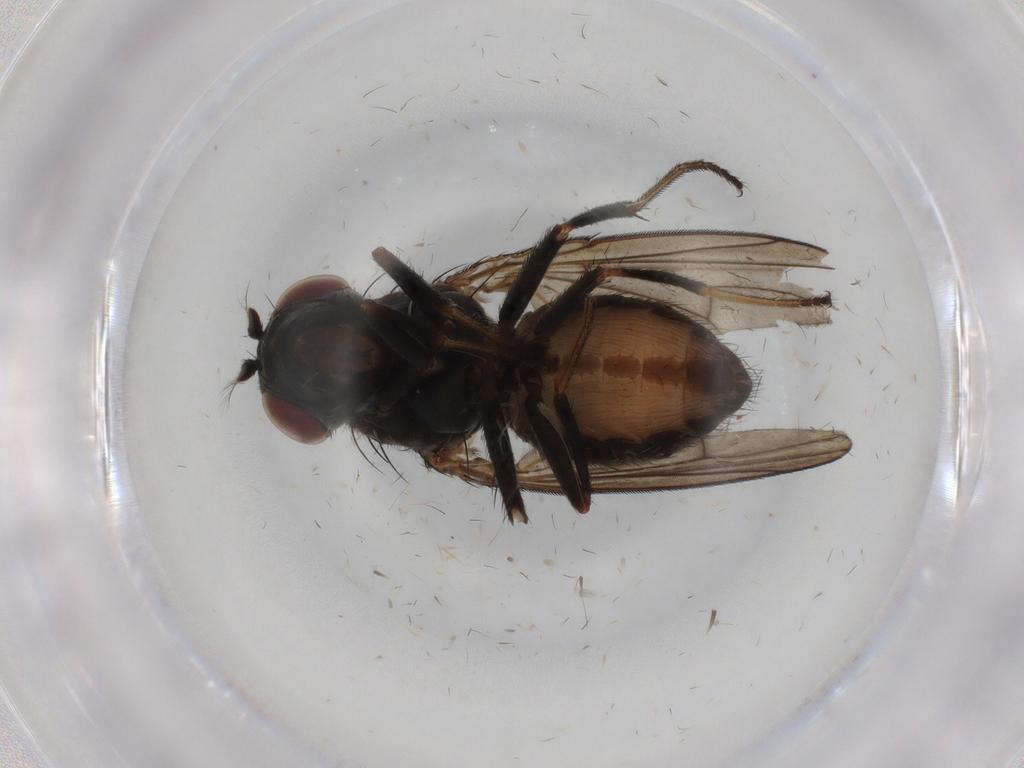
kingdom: Animalia
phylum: Arthropoda
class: Insecta
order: Diptera
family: Ephydridae
